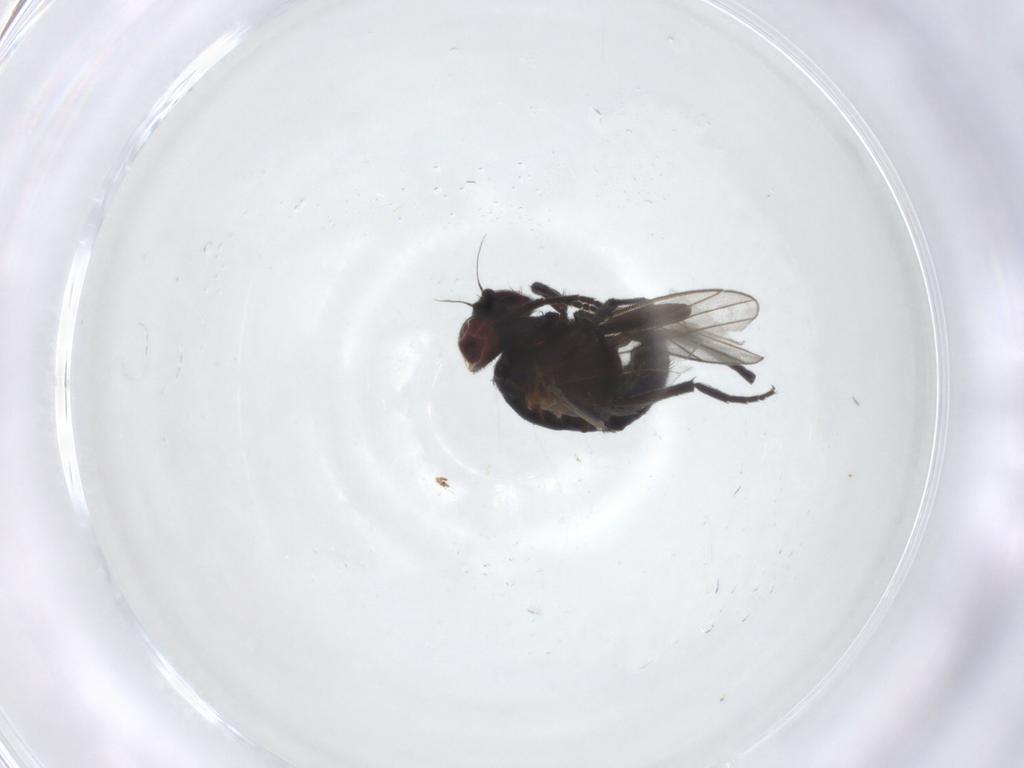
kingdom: Animalia
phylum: Arthropoda
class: Insecta
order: Diptera
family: Agromyzidae
